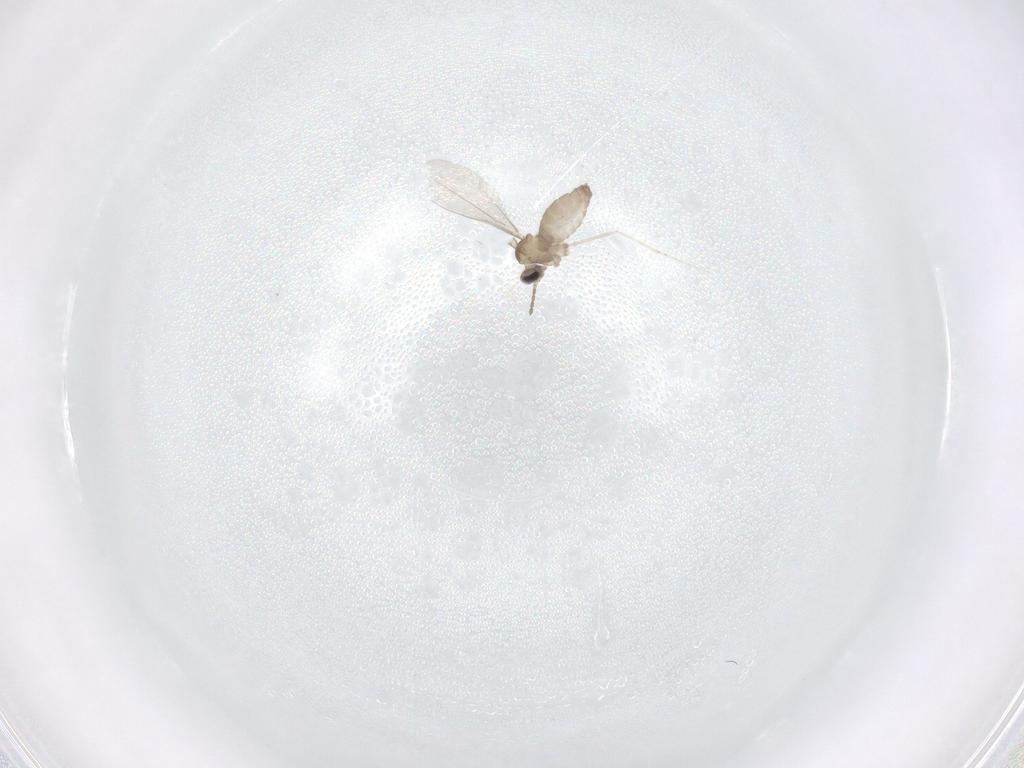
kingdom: Animalia
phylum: Arthropoda
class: Insecta
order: Diptera
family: Cecidomyiidae
